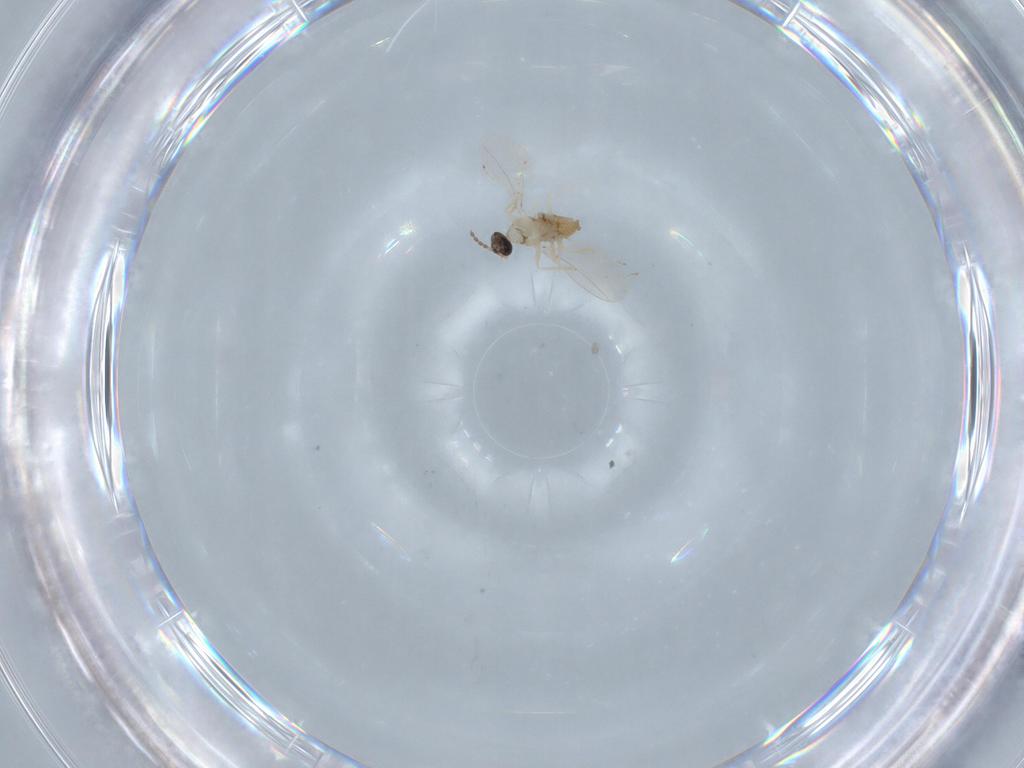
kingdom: Animalia
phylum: Arthropoda
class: Insecta
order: Diptera
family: Cecidomyiidae
